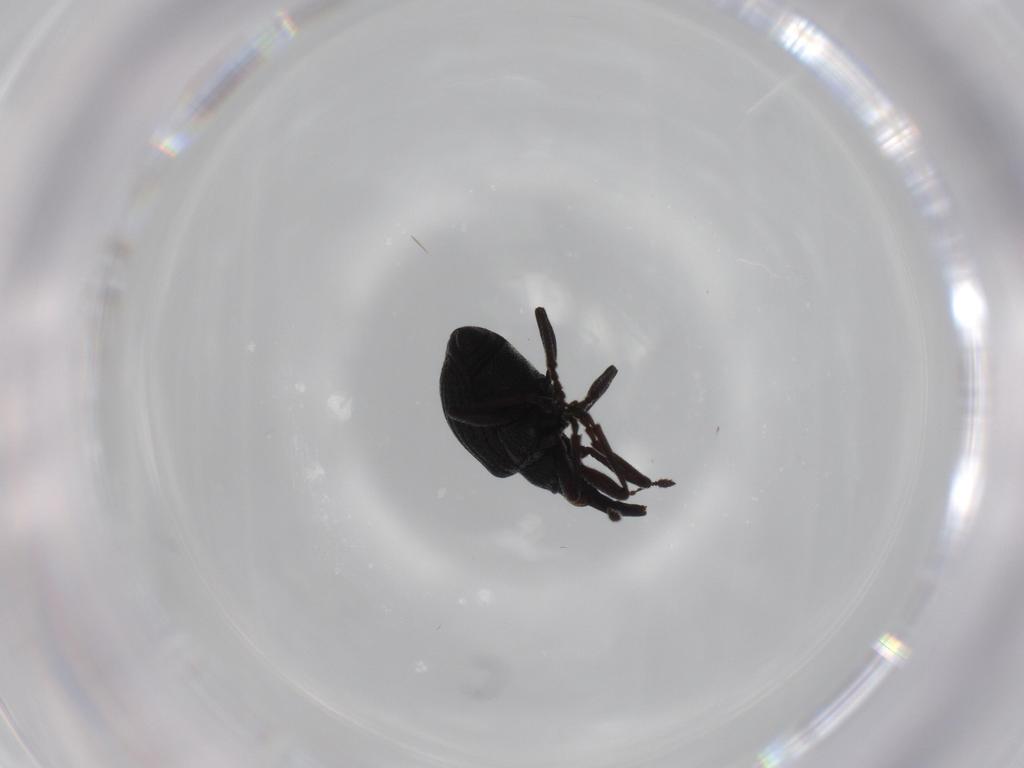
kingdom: Animalia
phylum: Arthropoda
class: Insecta
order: Coleoptera
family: Brentidae
